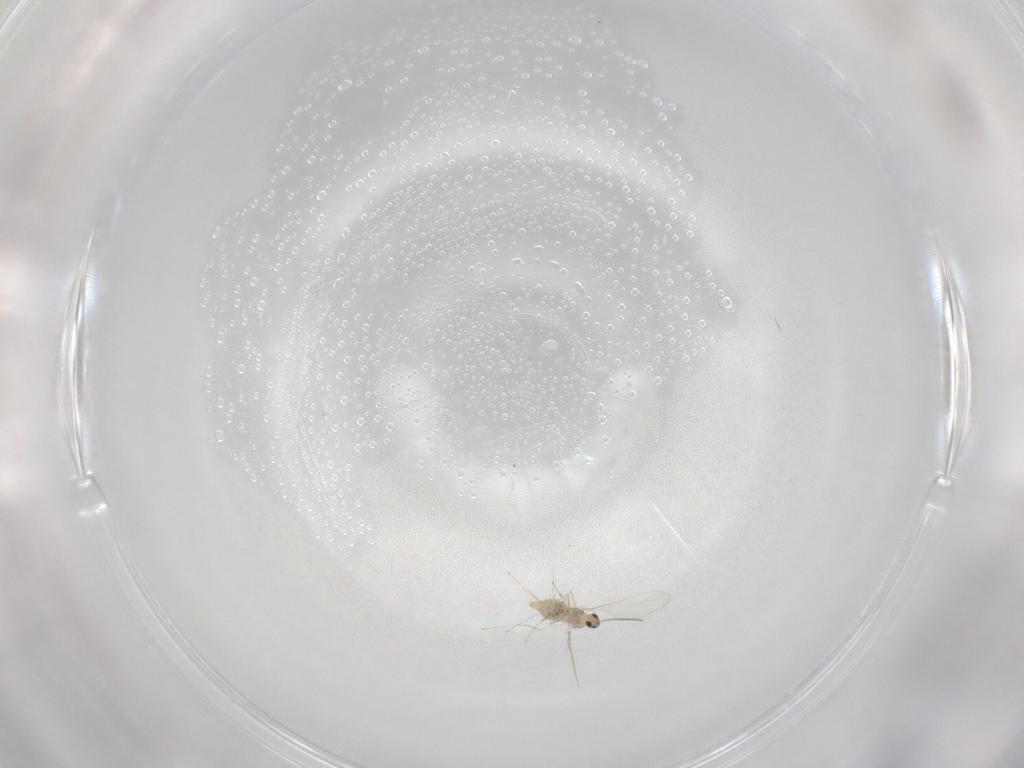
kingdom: Animalia
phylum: Arthropoda
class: Insecta
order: Diptera
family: Cecidomyiidae
